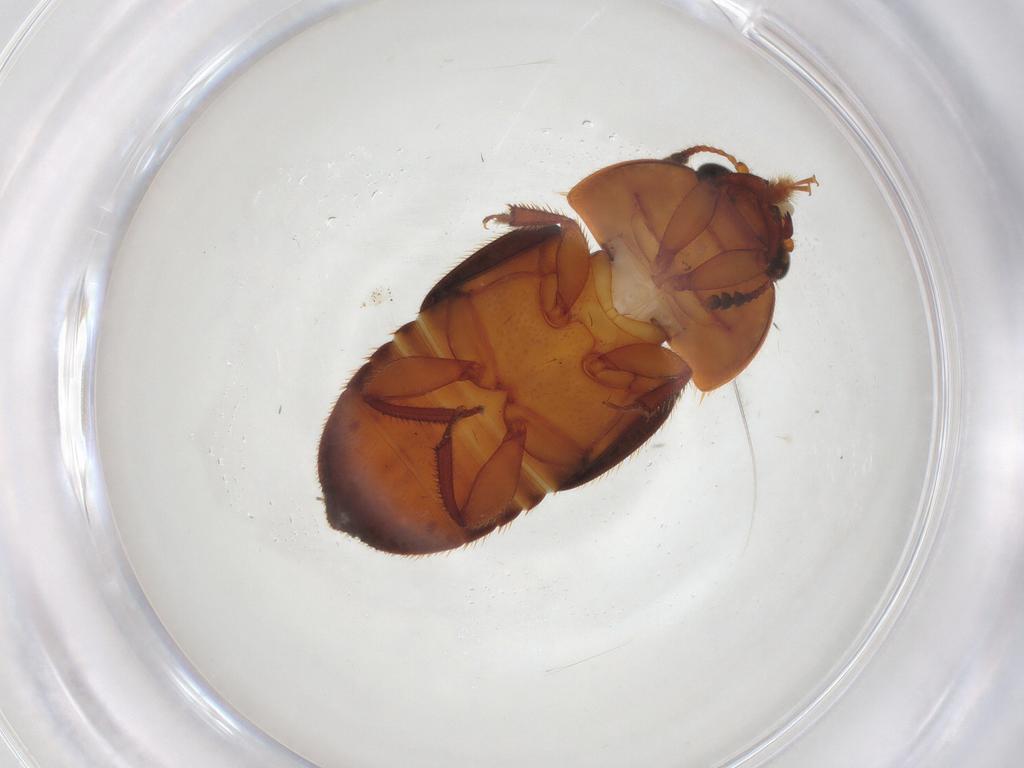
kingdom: Animalia
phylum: Arthropoda
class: Insecta
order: Coleoptera
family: Nitidulidae
